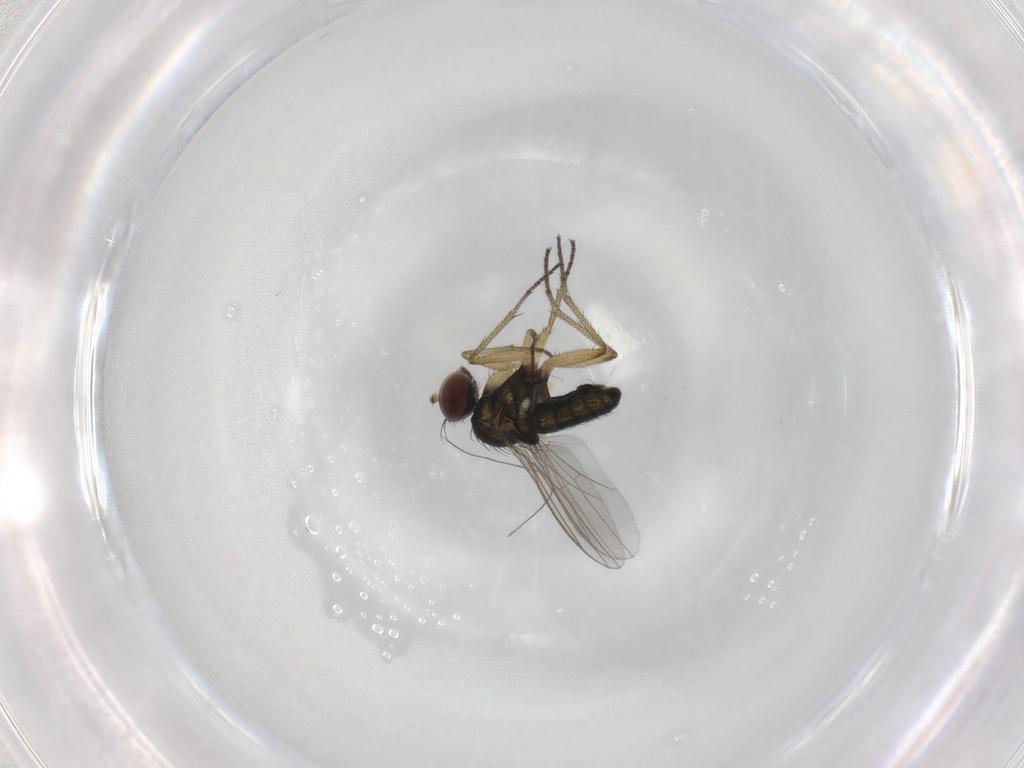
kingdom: Animalia
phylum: Arthropoda
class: Insecta
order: Diptera
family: Dolichopodidae
